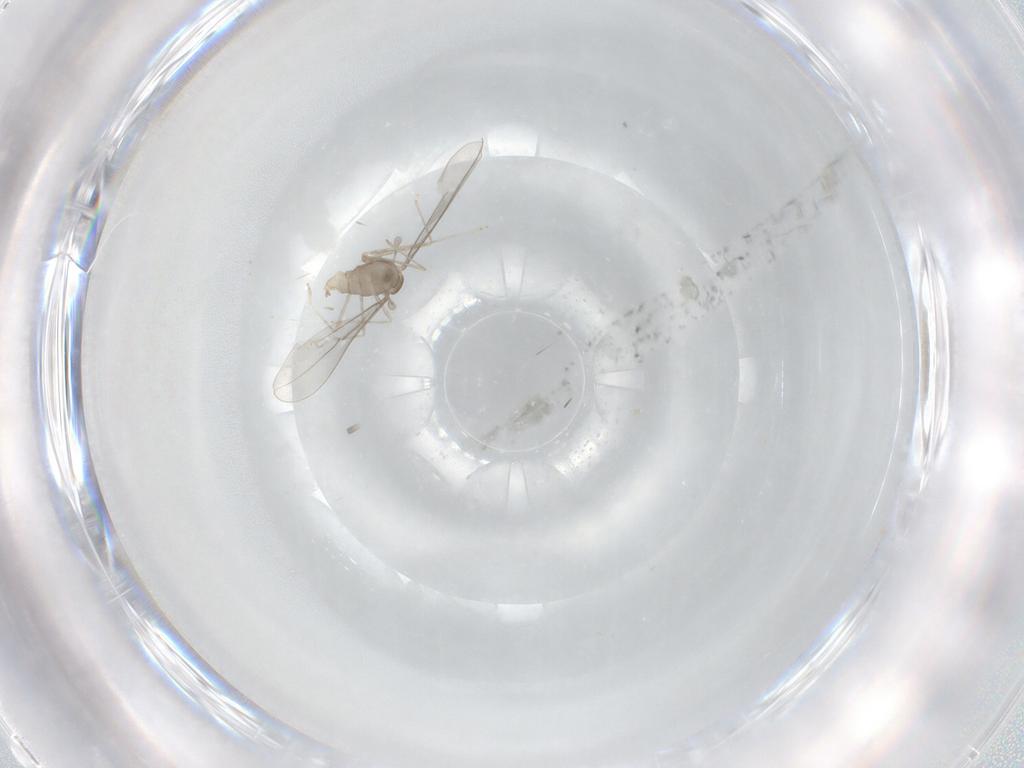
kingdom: Animalia
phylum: Arthropoda
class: Insecta
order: Diptera
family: Cecidomyiidae
